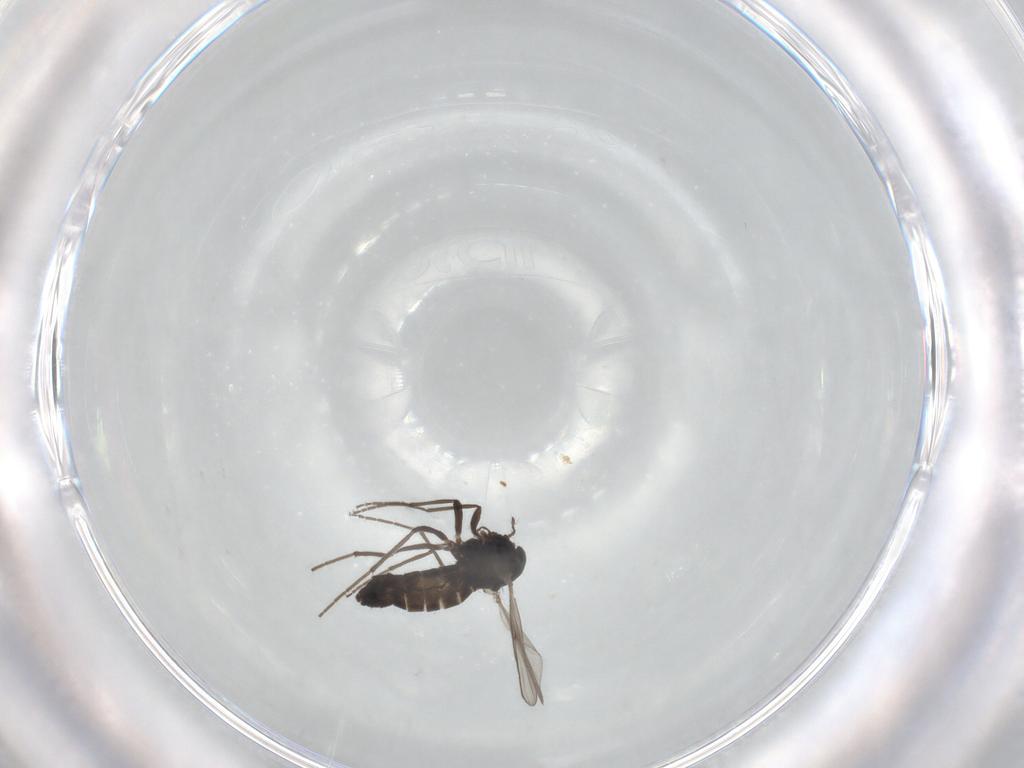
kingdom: Animalia
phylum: Arthropoda
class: Insecta
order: Diptera
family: Chironomidae
